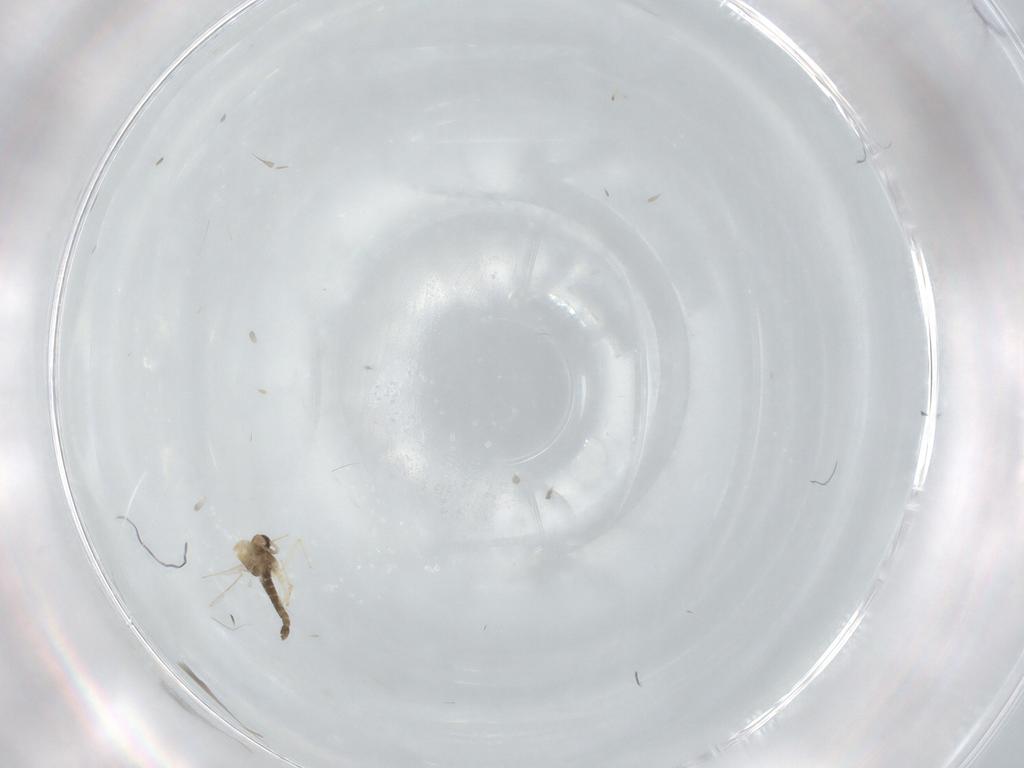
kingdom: Animalia
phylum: Arthropoda
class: Insecta
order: Diptera
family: Chironomidae
